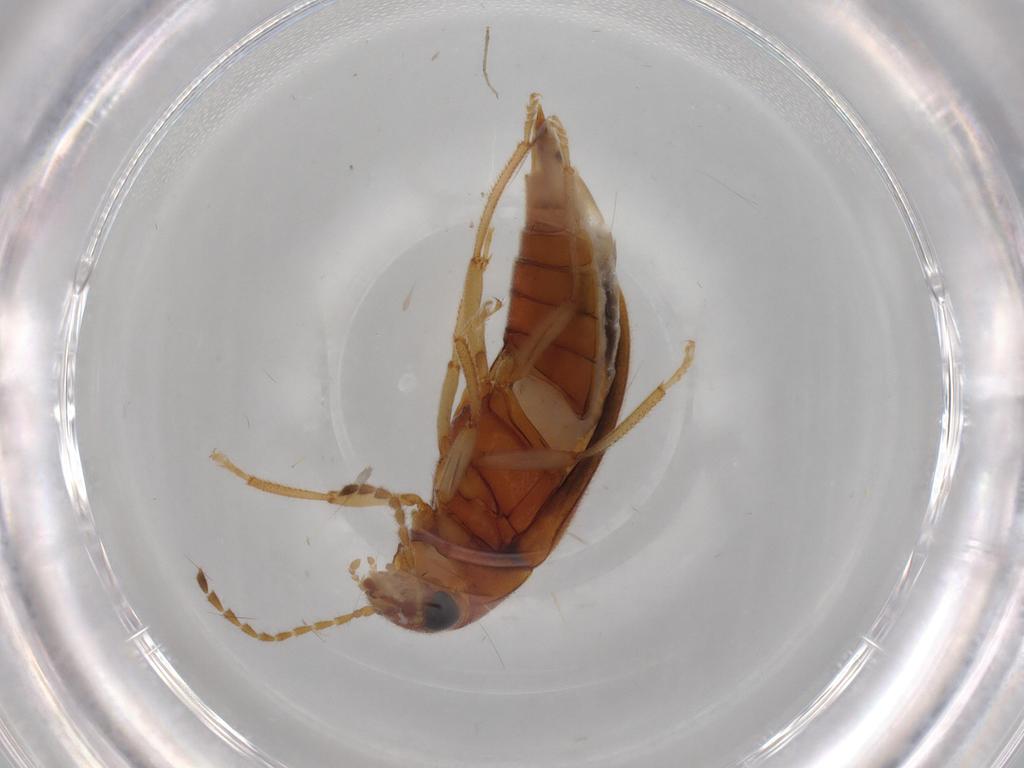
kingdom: Animalia
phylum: Arthropoda
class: Insecta
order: Coleoptera
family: Ptilodactylidae
